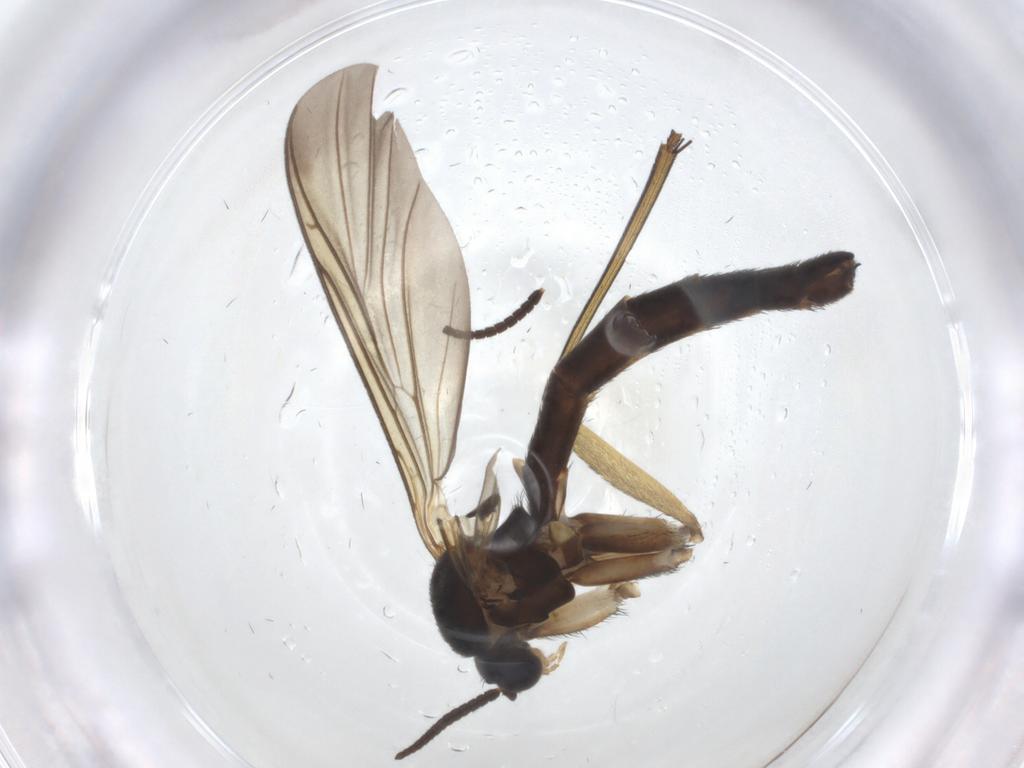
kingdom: Animalia
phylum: Arthropoda
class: Insecta
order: Diptera
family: Keroplatidae
